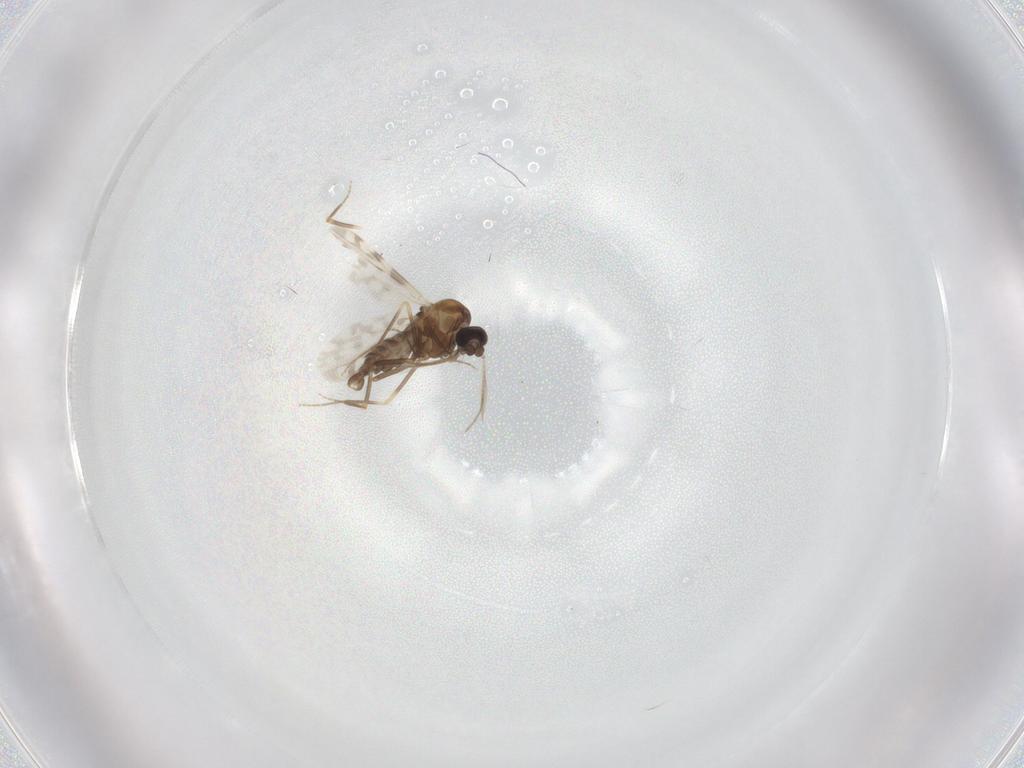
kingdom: Animalia
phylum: Arthropoda
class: Insecta
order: Diptera
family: Ceratopogonidae
